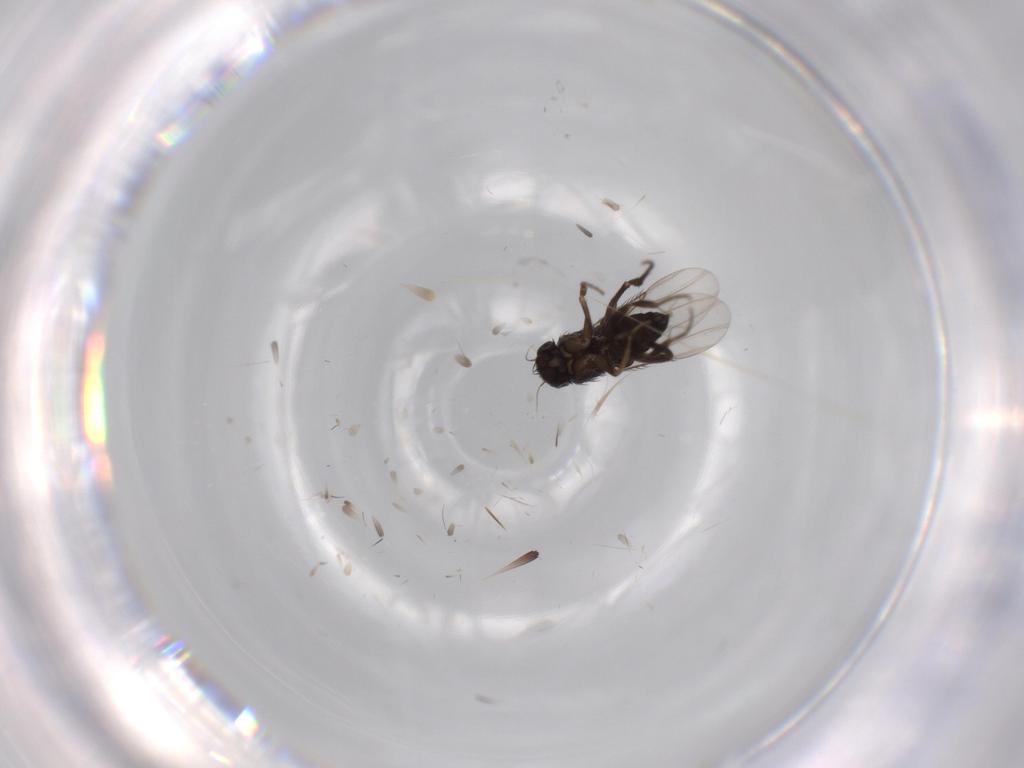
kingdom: Animalia
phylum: Arthropoda
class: Insecta
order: Diptera
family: Phoridae
